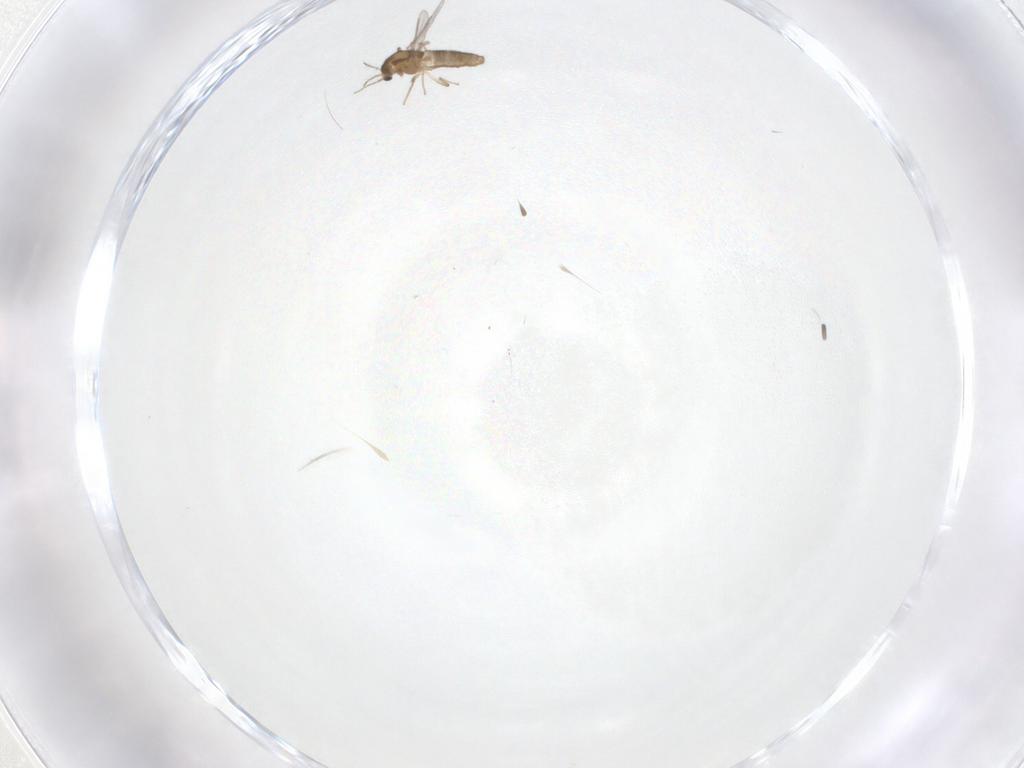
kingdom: Animalia
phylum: Arthropoda
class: Insecta
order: Diptera
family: Chironomidae
